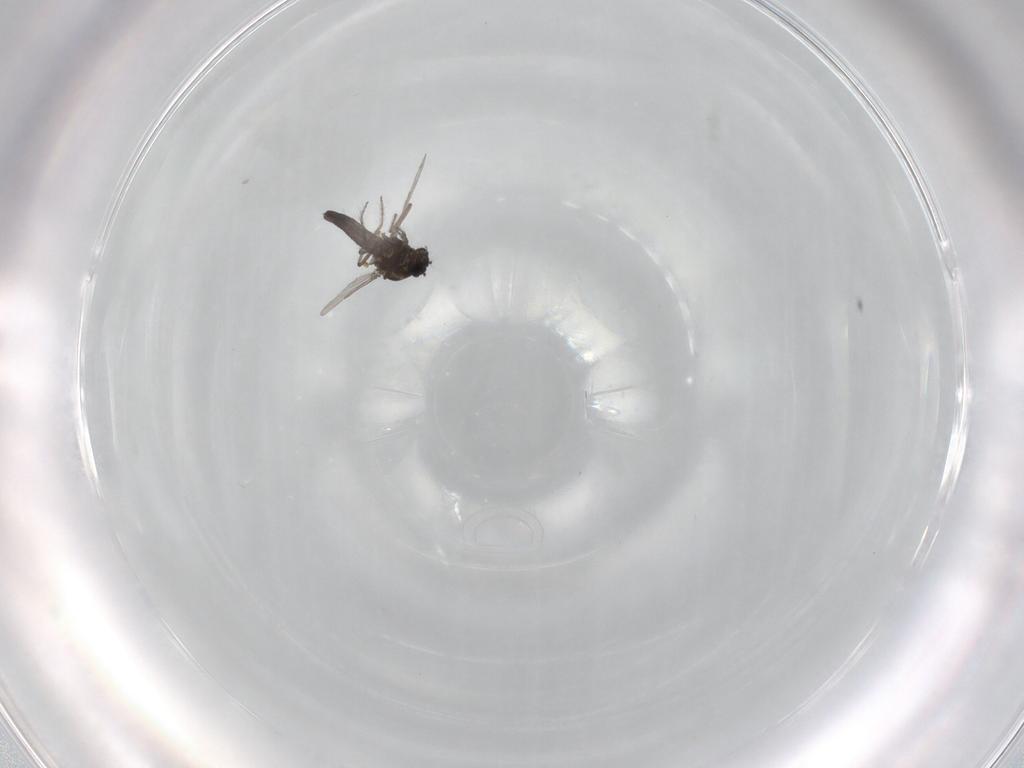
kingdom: Animalia
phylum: Arthropoda
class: Insecta
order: Diptera
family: Ceratopogonidae
